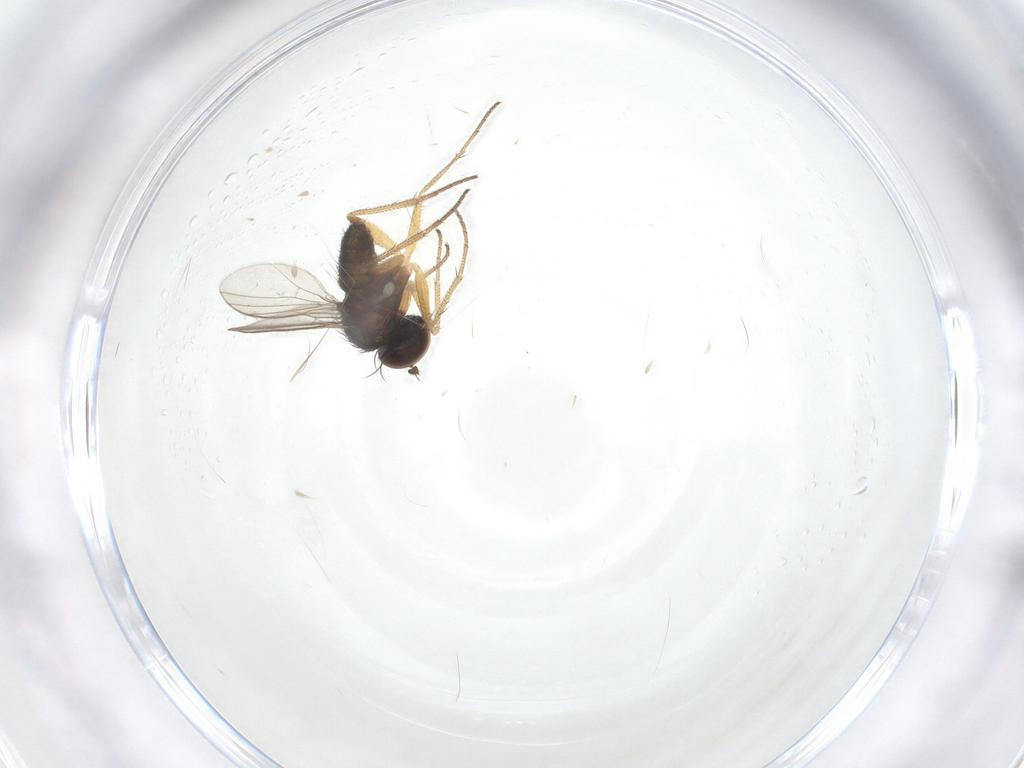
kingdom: Animalia
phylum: Arthropoda
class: Insecta
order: Diptera
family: Dolichopodidae
